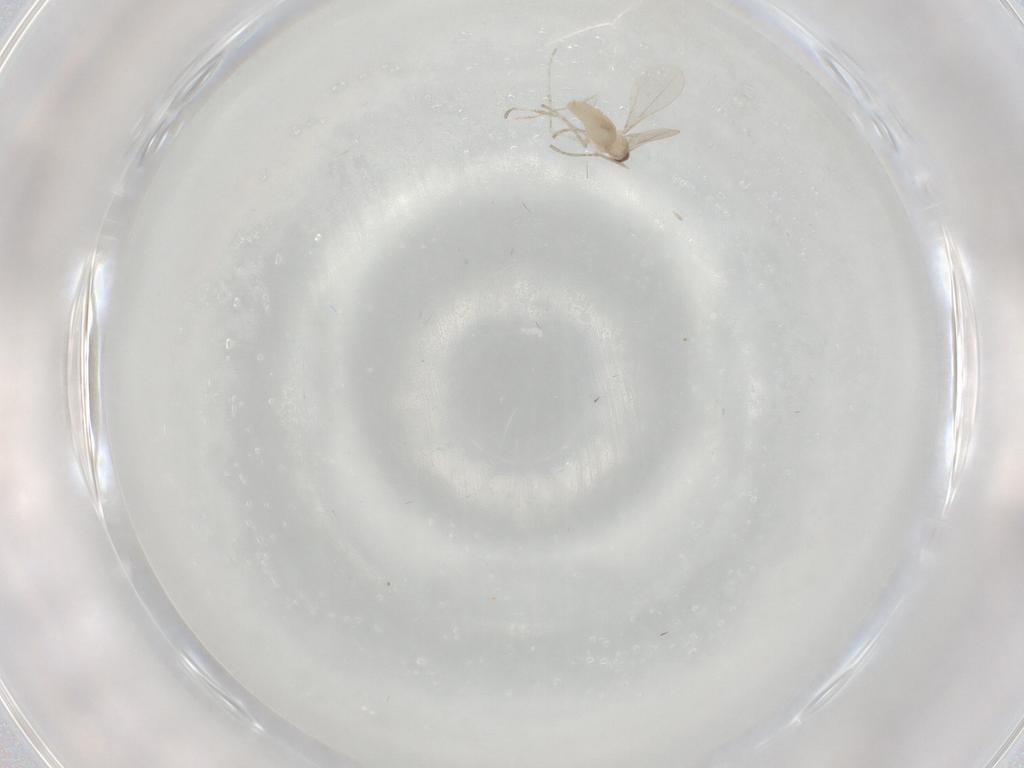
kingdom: Animalia
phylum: Arthropoda
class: Insecta
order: Diptera
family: Cecidomyiidae
